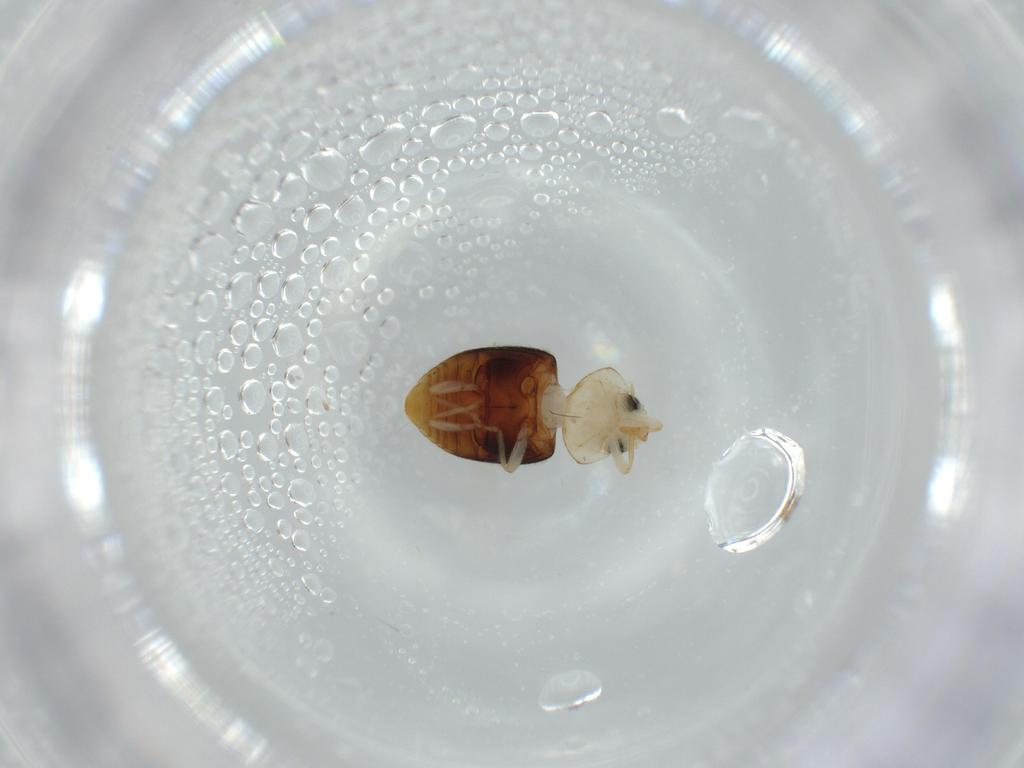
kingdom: Animalia
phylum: Arthropoda
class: Insecta
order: Coleoptera
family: Coccinellidae
